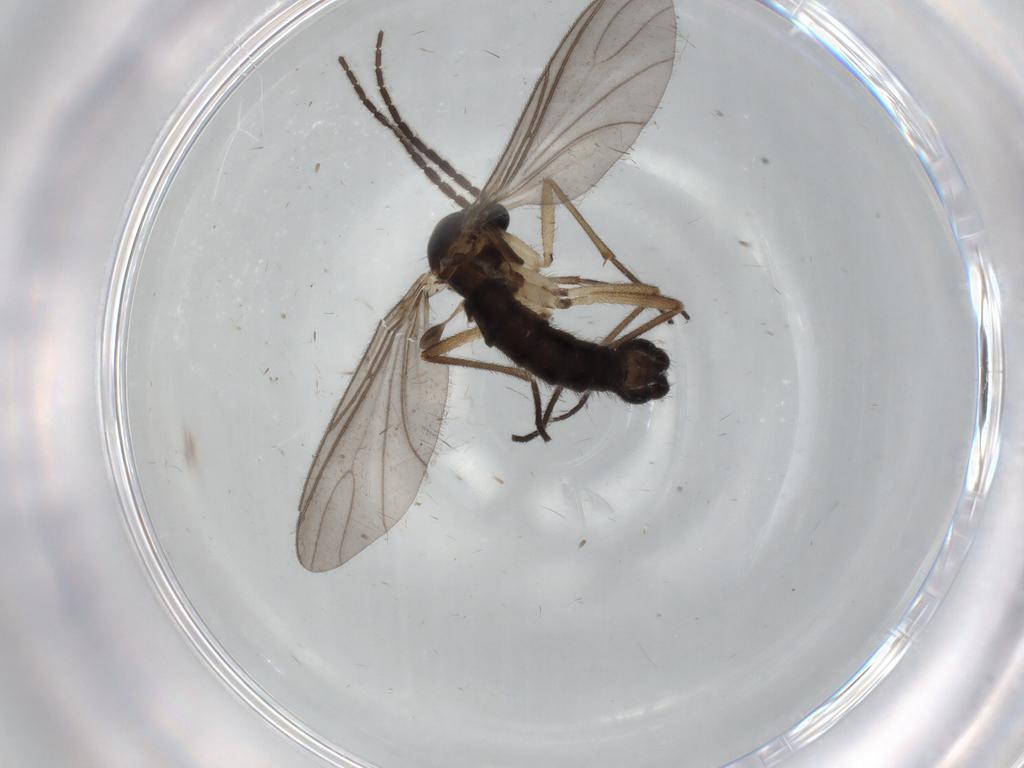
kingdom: Animalia
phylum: Arthropoda
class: Insecta
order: Diptera
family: Sciaridae
